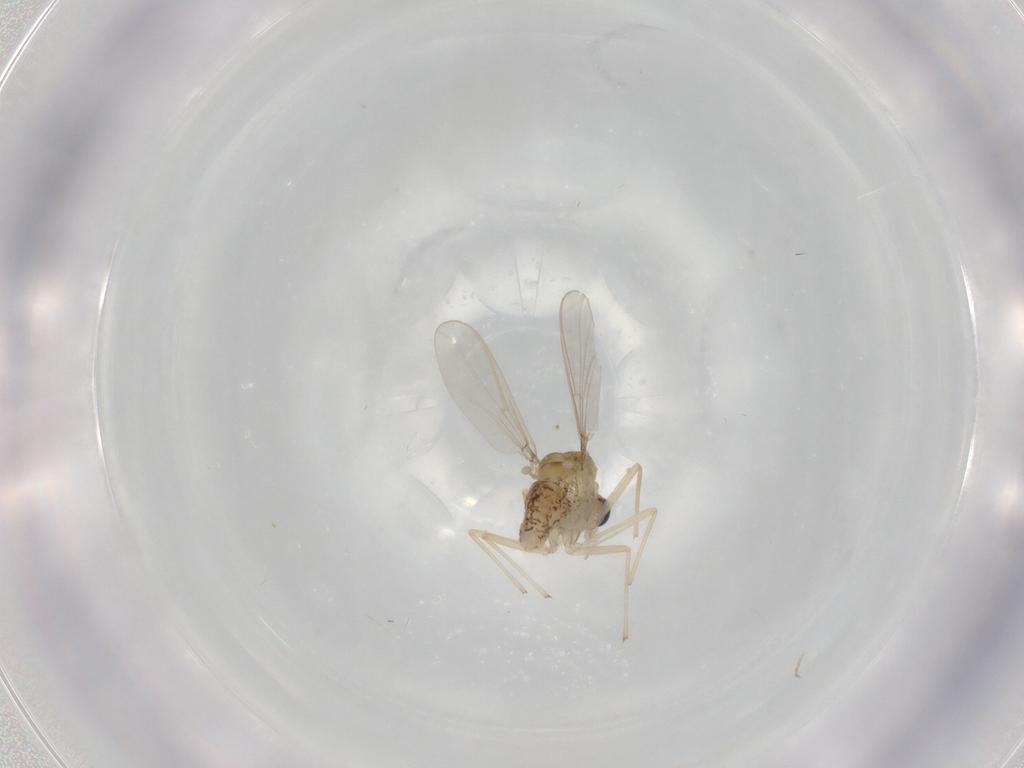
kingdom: Animalia
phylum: Arthropoda
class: Insecta
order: Diptera
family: Chironomidae
